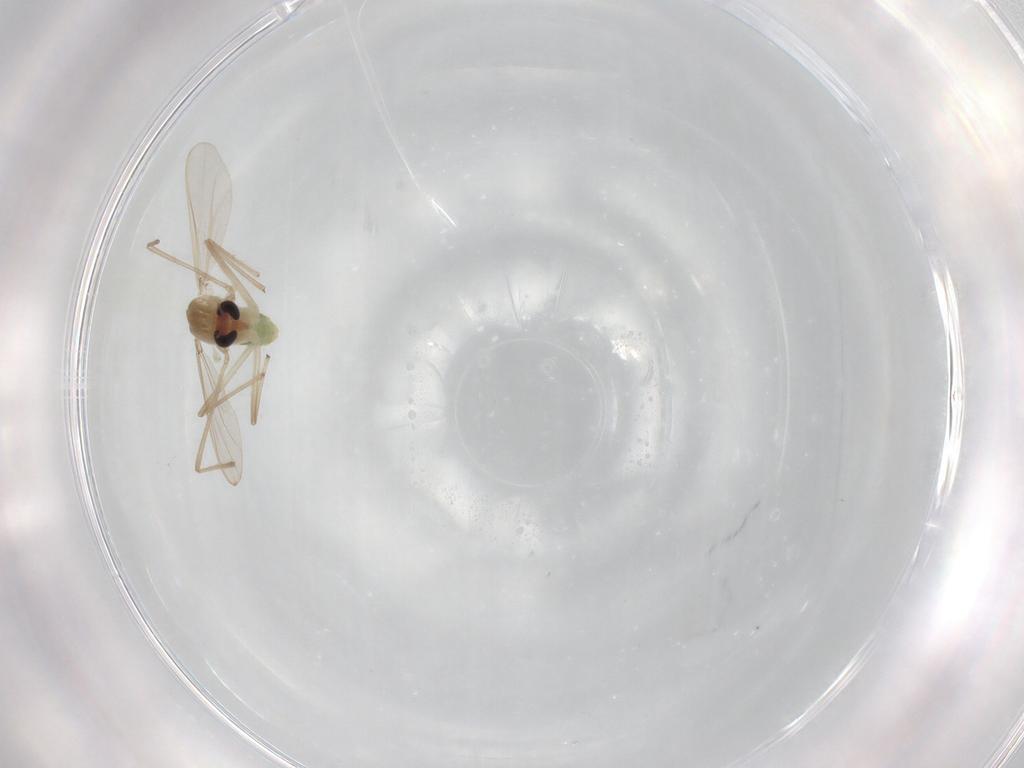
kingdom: Animalia
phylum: Arthropoda
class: Insecta
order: Diptera
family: Chironomidae
